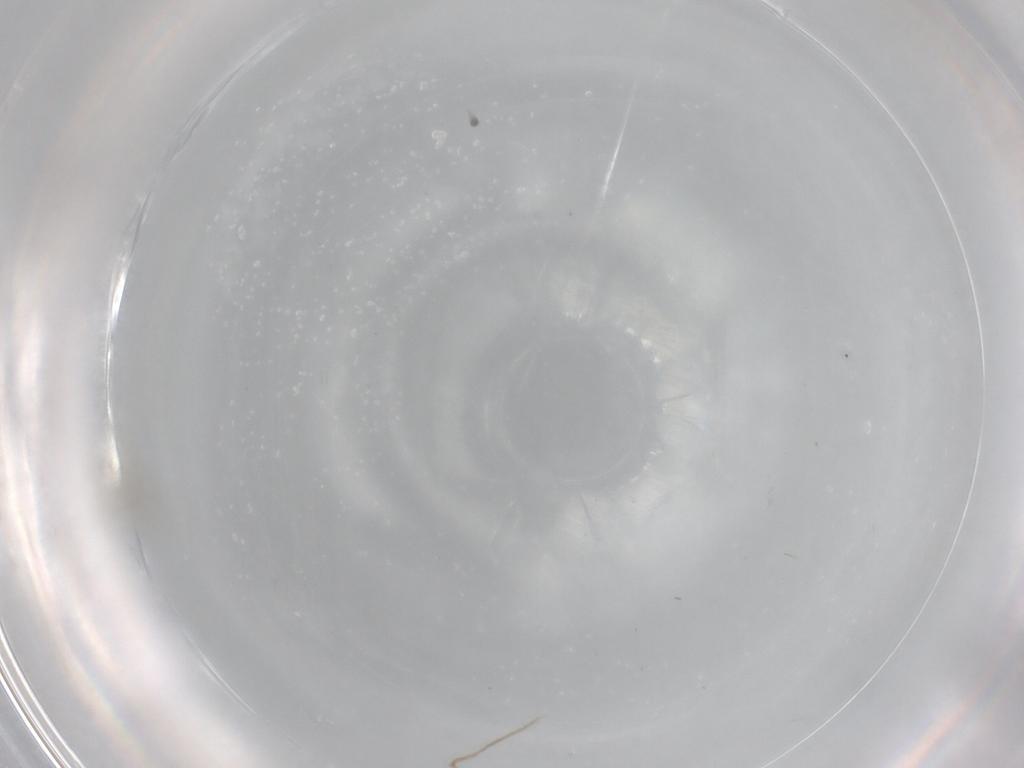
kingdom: Animalia
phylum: Arthropoda
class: Insecta
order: Diptera
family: Cecidomyiidae
